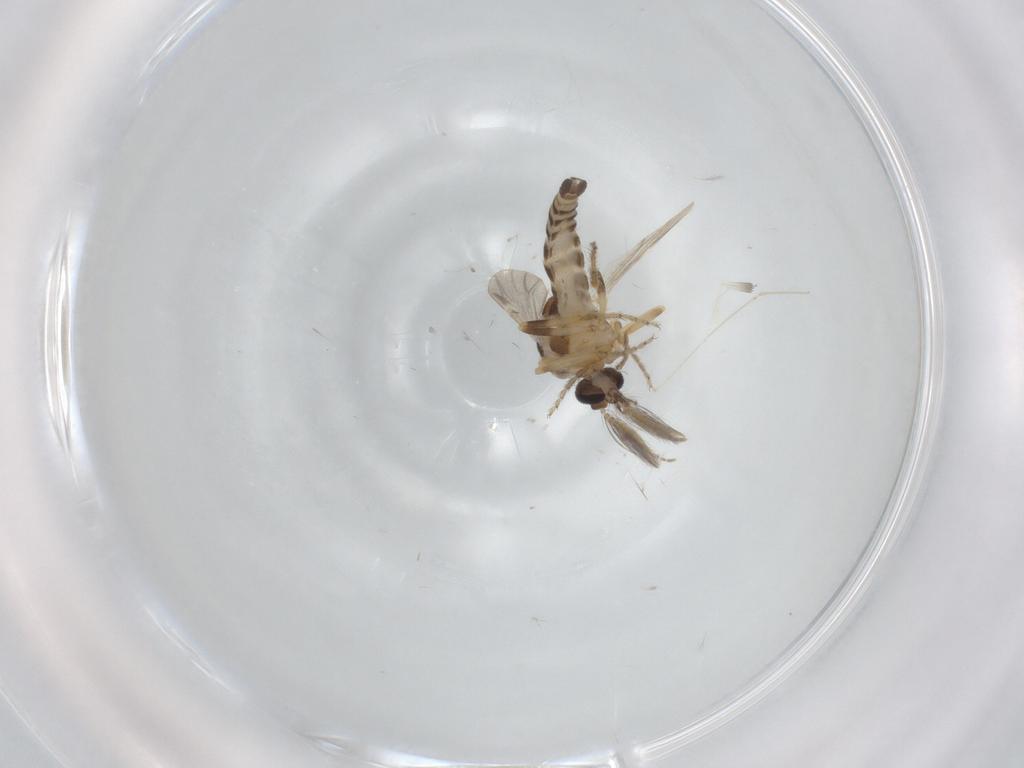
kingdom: Animalia
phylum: Arthropoda
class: Insecta
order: Diptera
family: Ceratopogonidae
